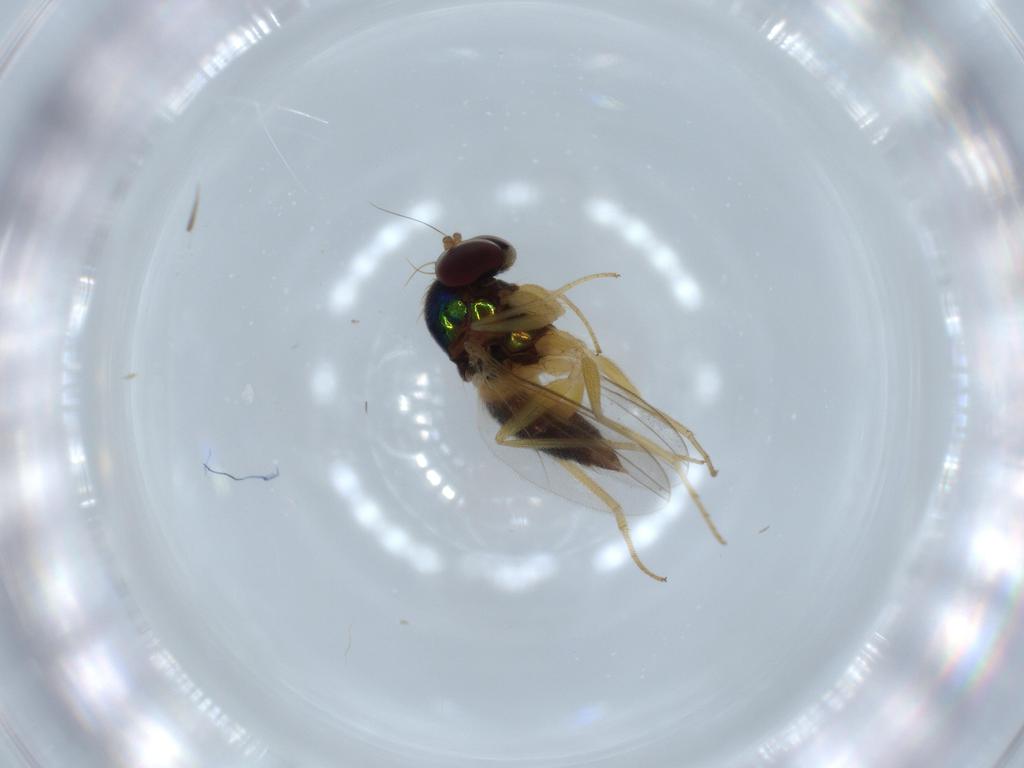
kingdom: Animalia
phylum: Arthropoda
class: Insecta
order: Diptera
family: Dolichopodidae
